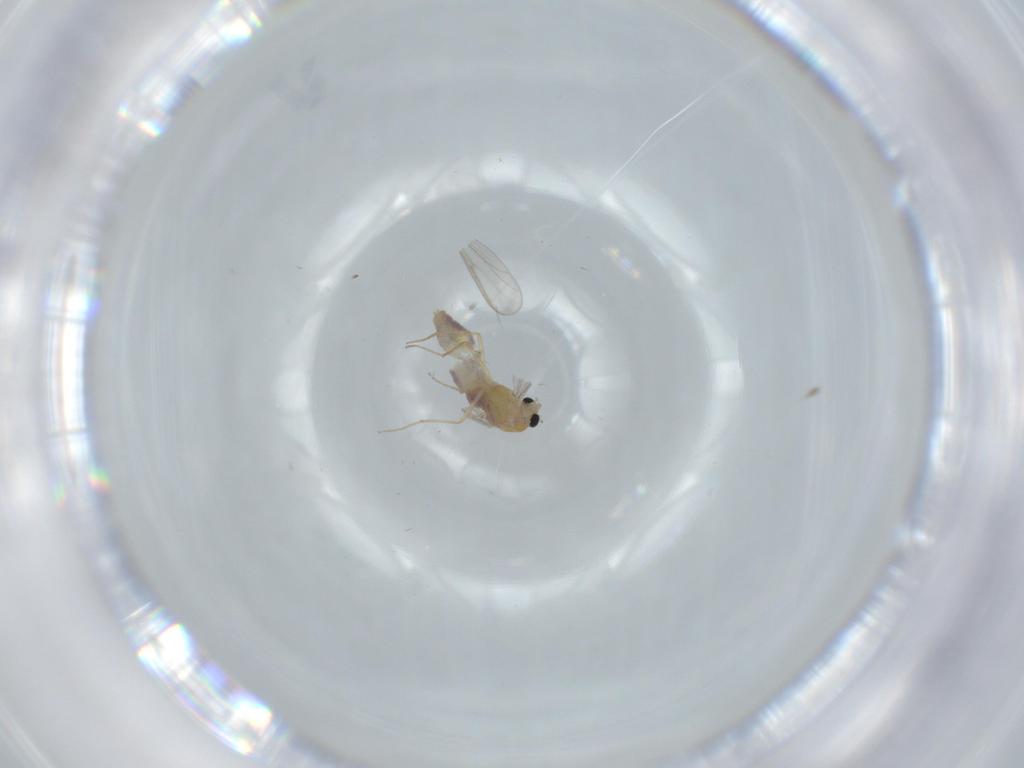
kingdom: Animalia
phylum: Arthropoda
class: Insecta
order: Diptera
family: Chironomidae
